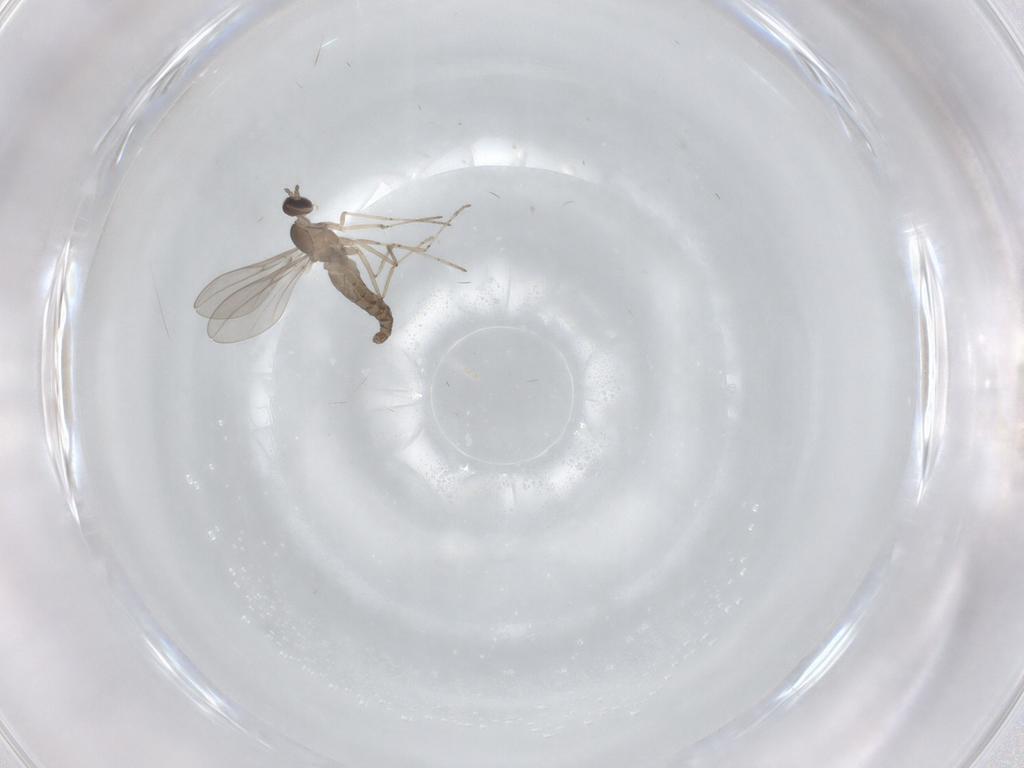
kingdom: Animalia
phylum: Arthropoda
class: Insecta
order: Diptera
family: Cecidomyiidae
